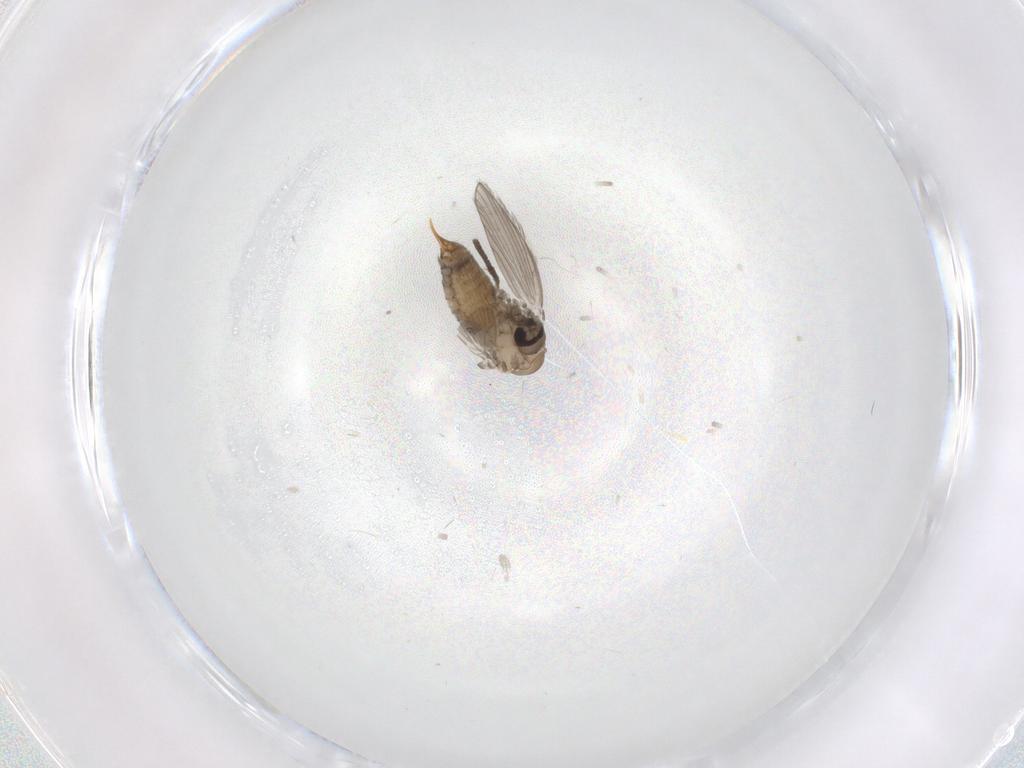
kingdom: Animalia
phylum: Arthropoda
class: Insecta
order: Diptera
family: Psychodidae
